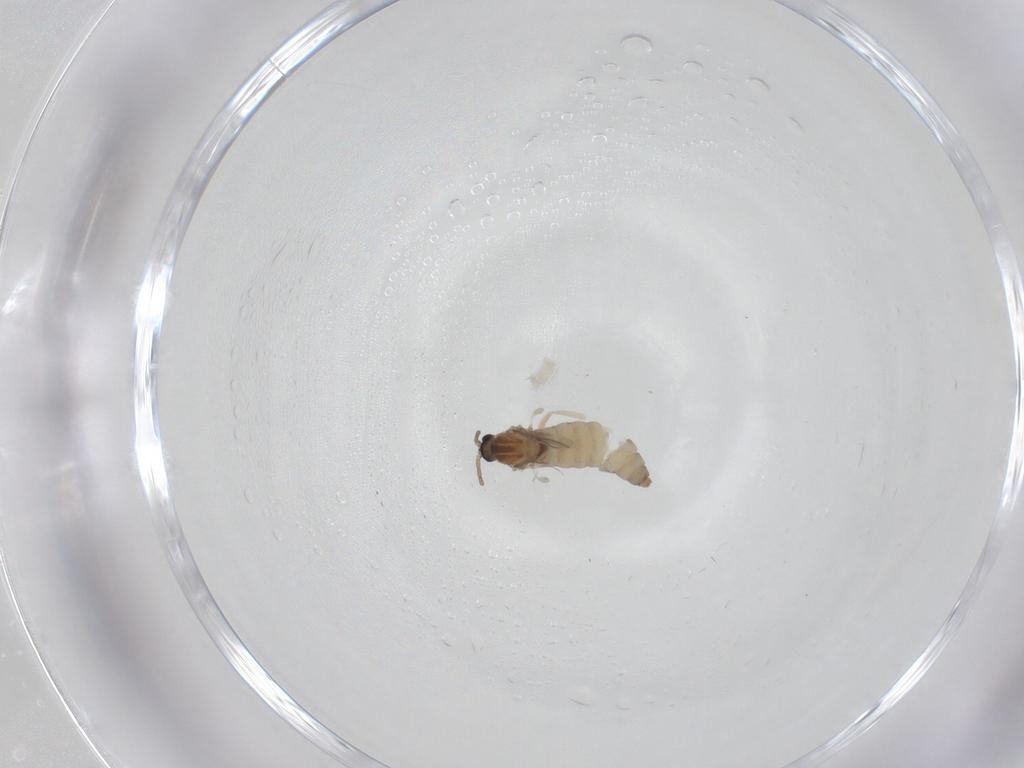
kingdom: Animalia
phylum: Arthropoda
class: Insecta
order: Diptera
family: Cecidomyiidae
